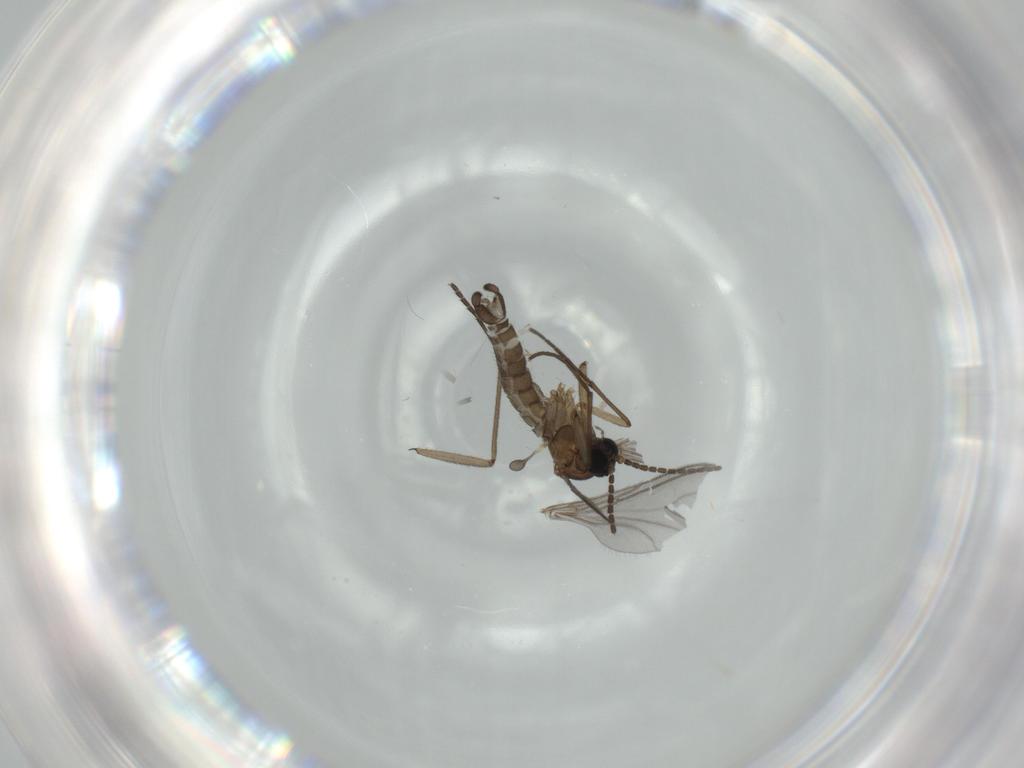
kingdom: Animalia
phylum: Arthropoda
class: Insecta
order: Diptera
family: Sciaridae
